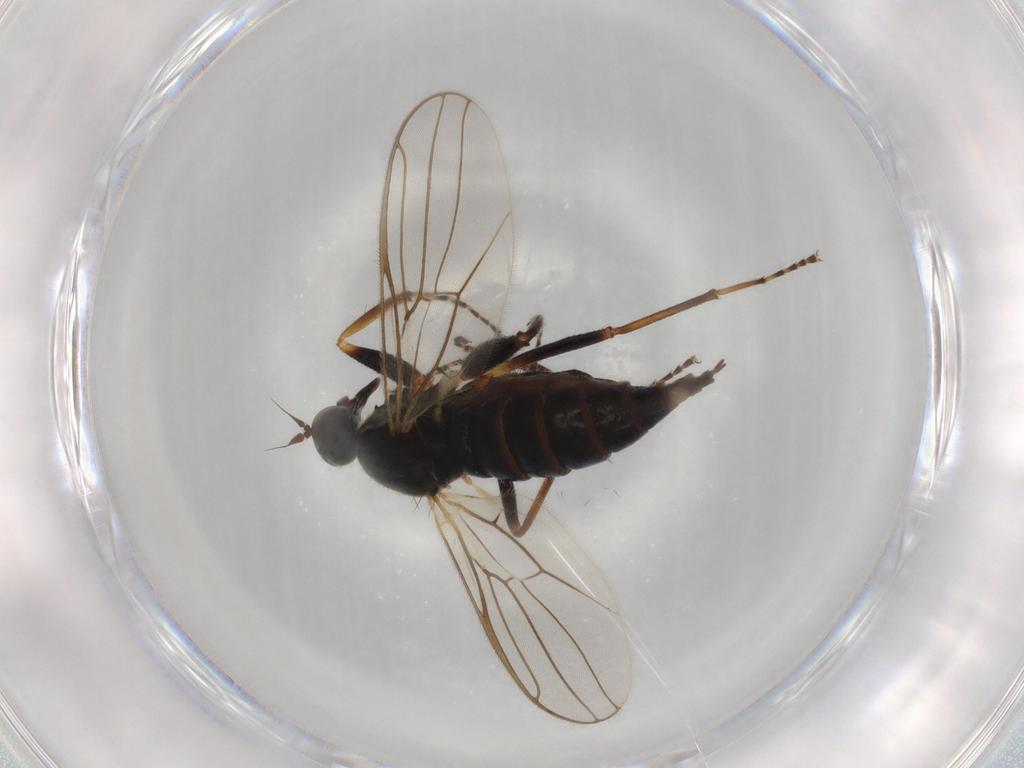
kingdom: Animalia
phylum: Arthropoda
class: Insecta
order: Diptera
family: Hybotidae
